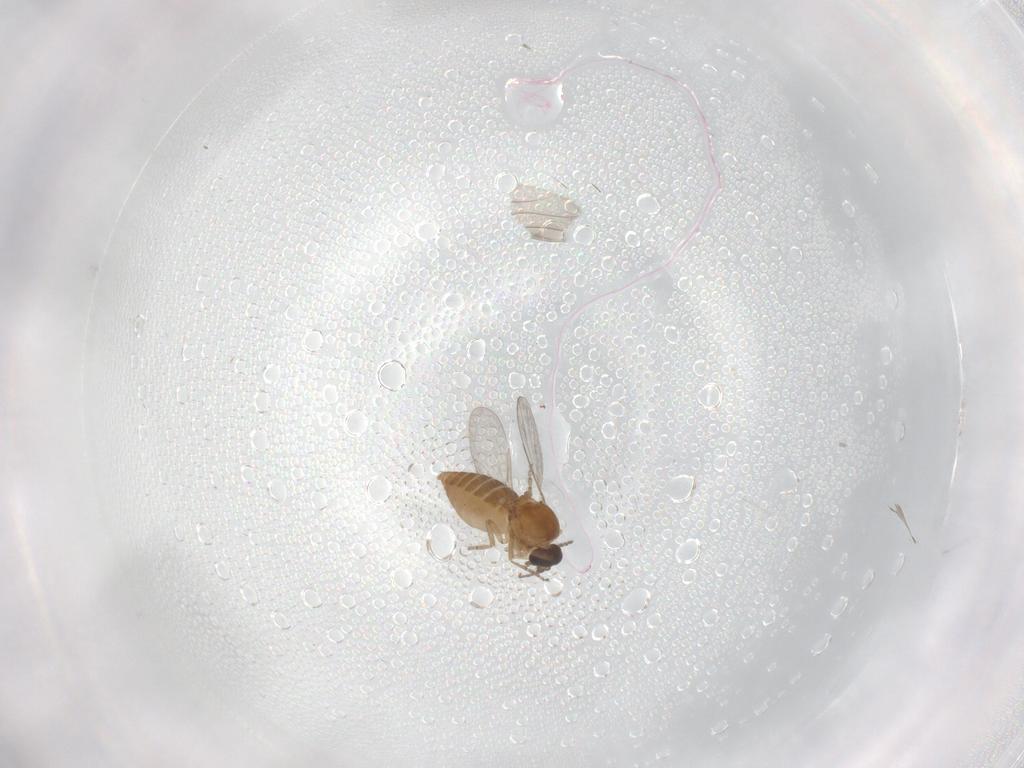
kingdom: Animalia
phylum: Arthropoda
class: Insecta
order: Diptera
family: Ceratopogonidae
